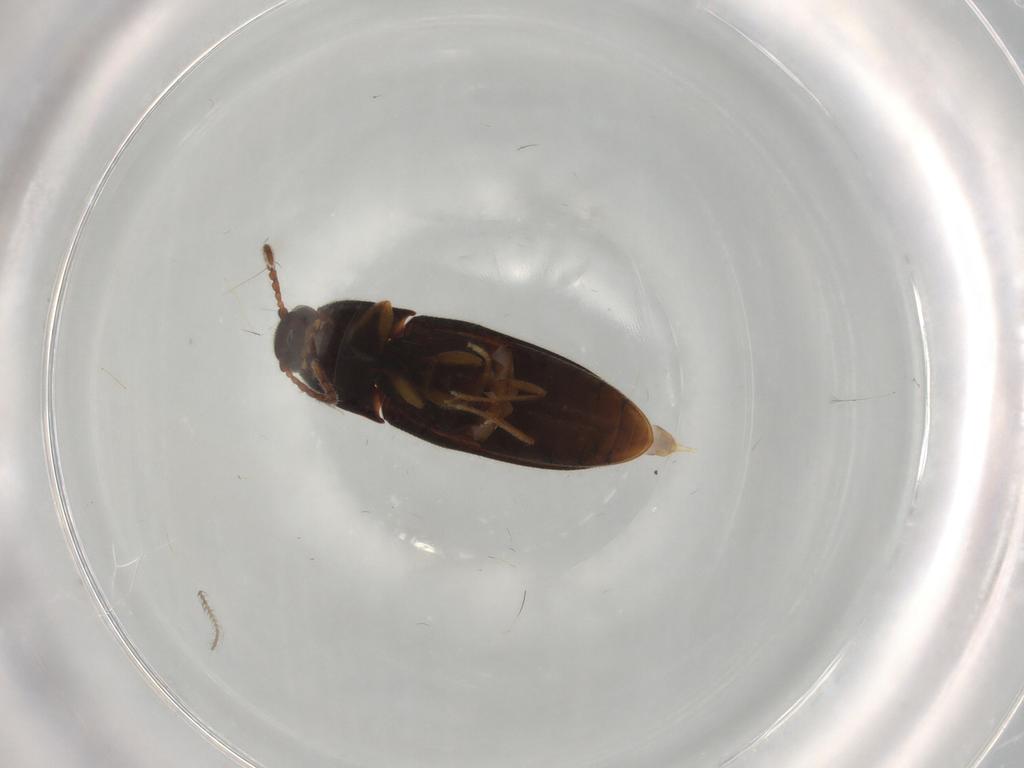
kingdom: Animalia
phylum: Arthropoda
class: Insecta
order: Coleoptera
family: Elateridae
